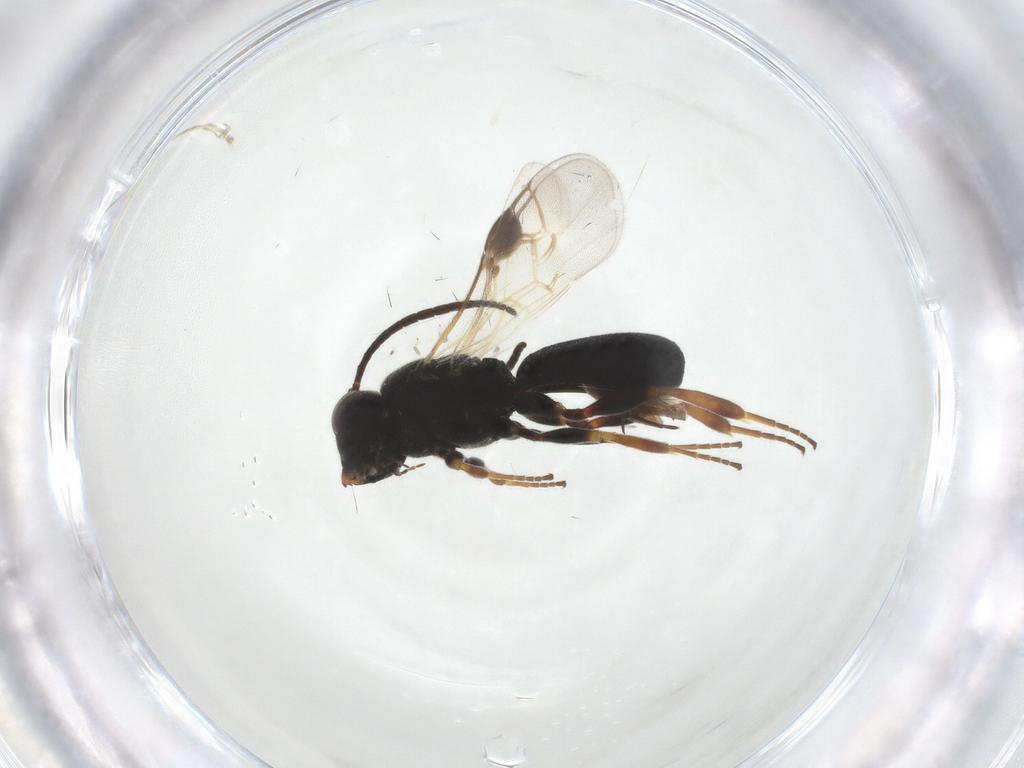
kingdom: Animalia
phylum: Arthropoda
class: Insecta
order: Hymenoptera
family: Braconidae
